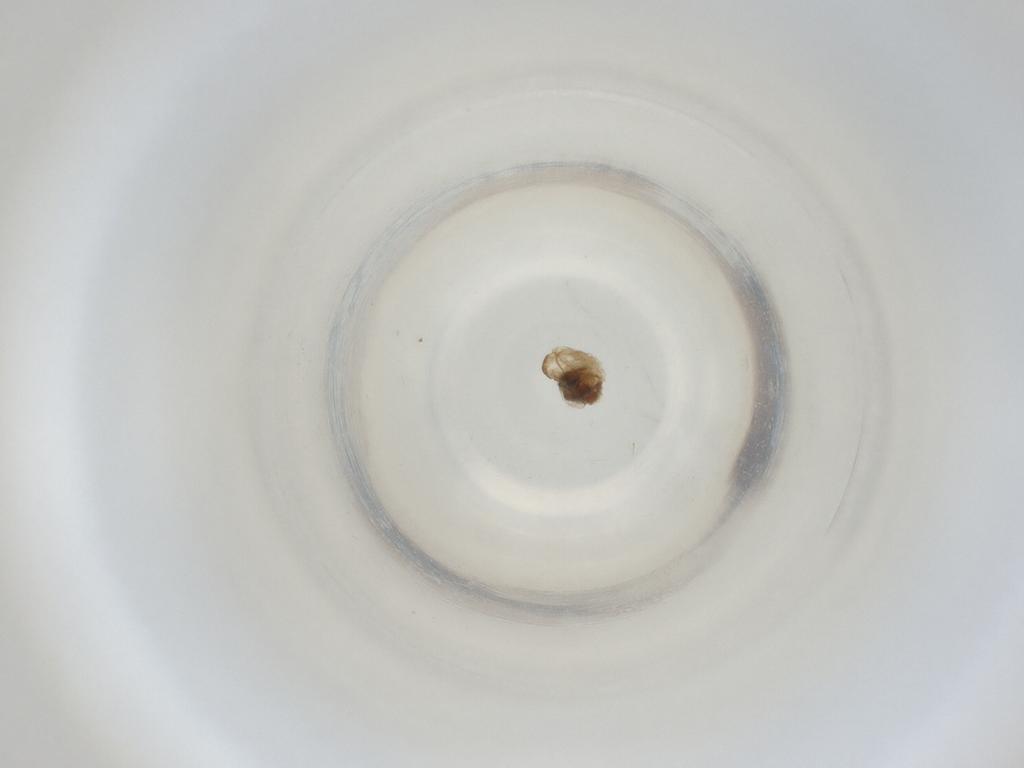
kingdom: Animalia
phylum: Arthropoda
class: Insecta
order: Diptera
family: Cecidomyiidae
